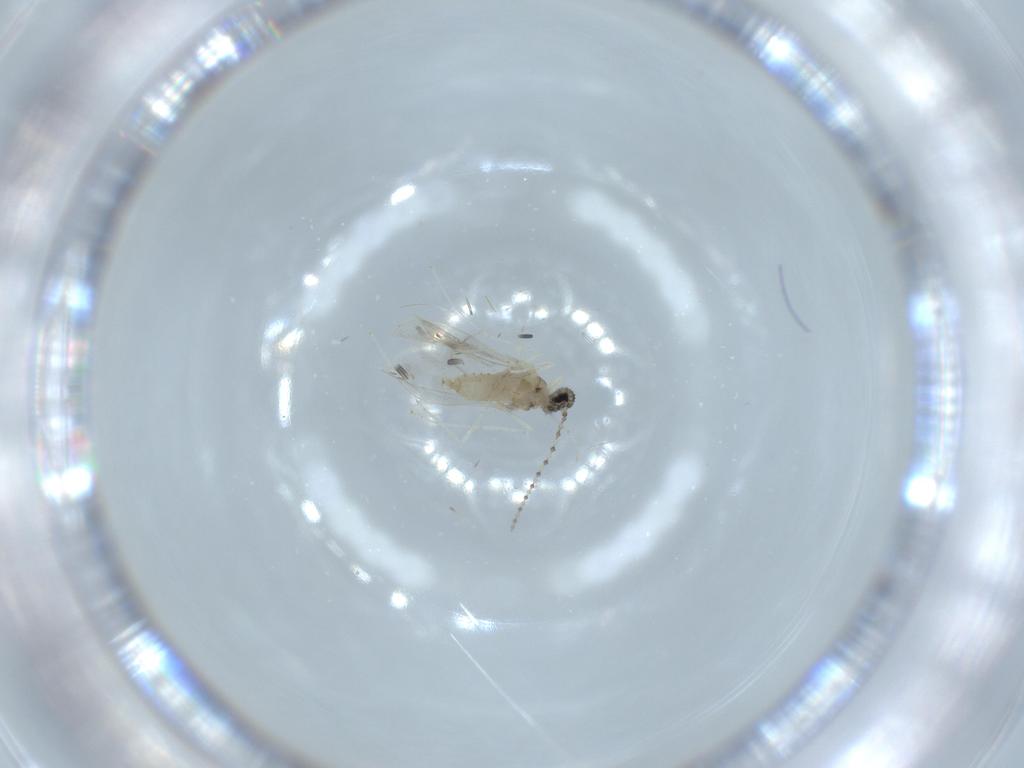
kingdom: Animalia
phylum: Arthropoda
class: Insecta
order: Diptera
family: Cecidomyiidae
